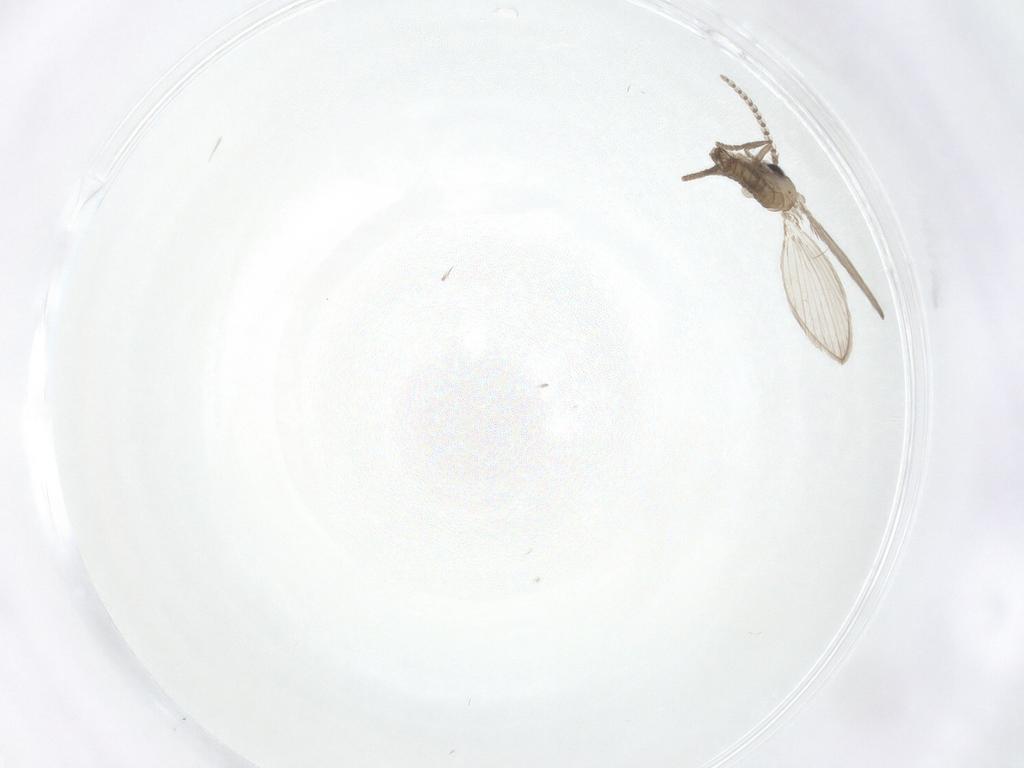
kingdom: Animalia
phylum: Arthropoda
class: Insecta
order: Diptera
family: Psychodidae
